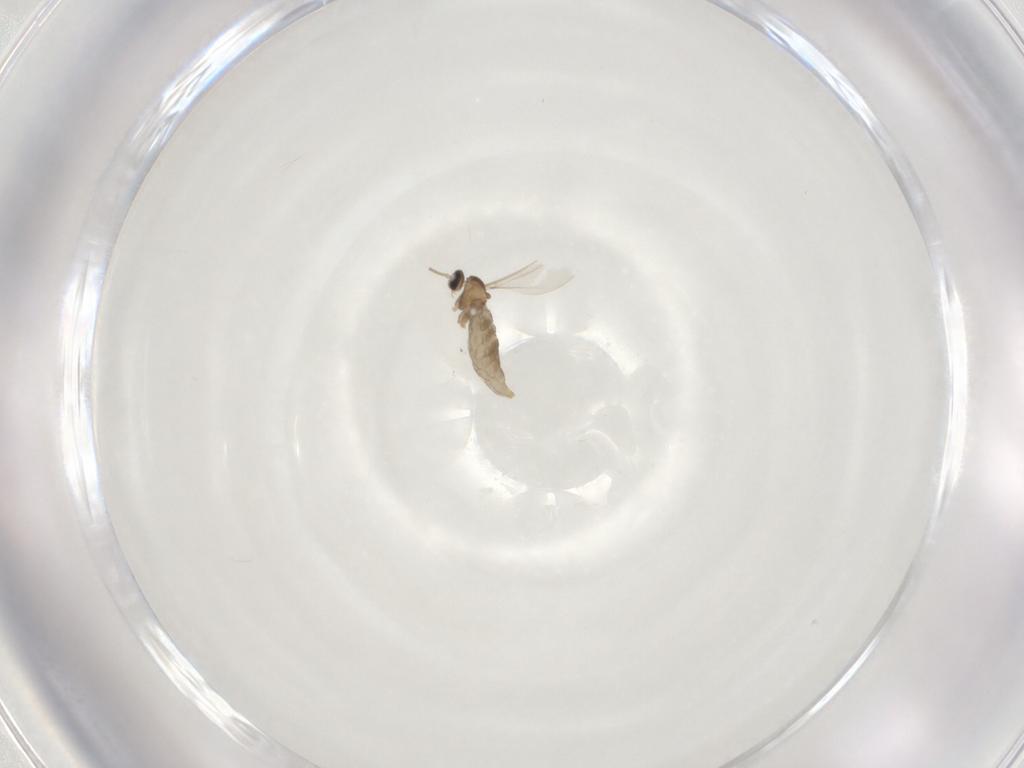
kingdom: Animalia
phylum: Arthropoda
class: Insecta
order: Diptera
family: Cecidomyiidae
